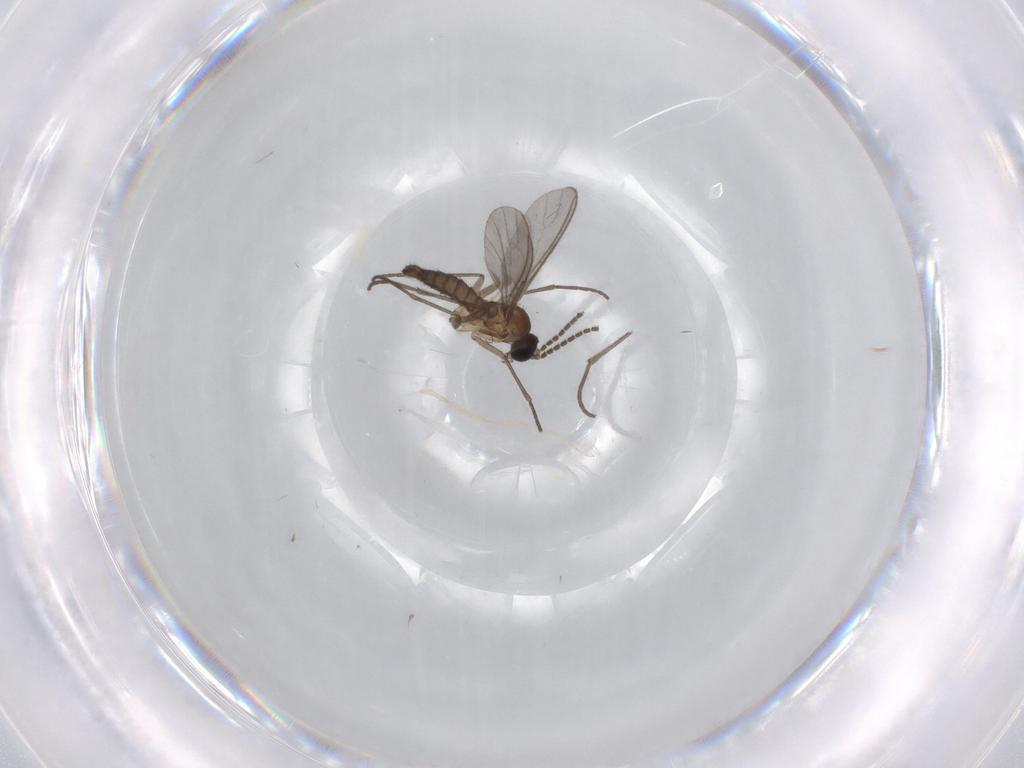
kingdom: Animalia
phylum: Arthropoda
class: Insecta
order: Diptera
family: Sciaridae
